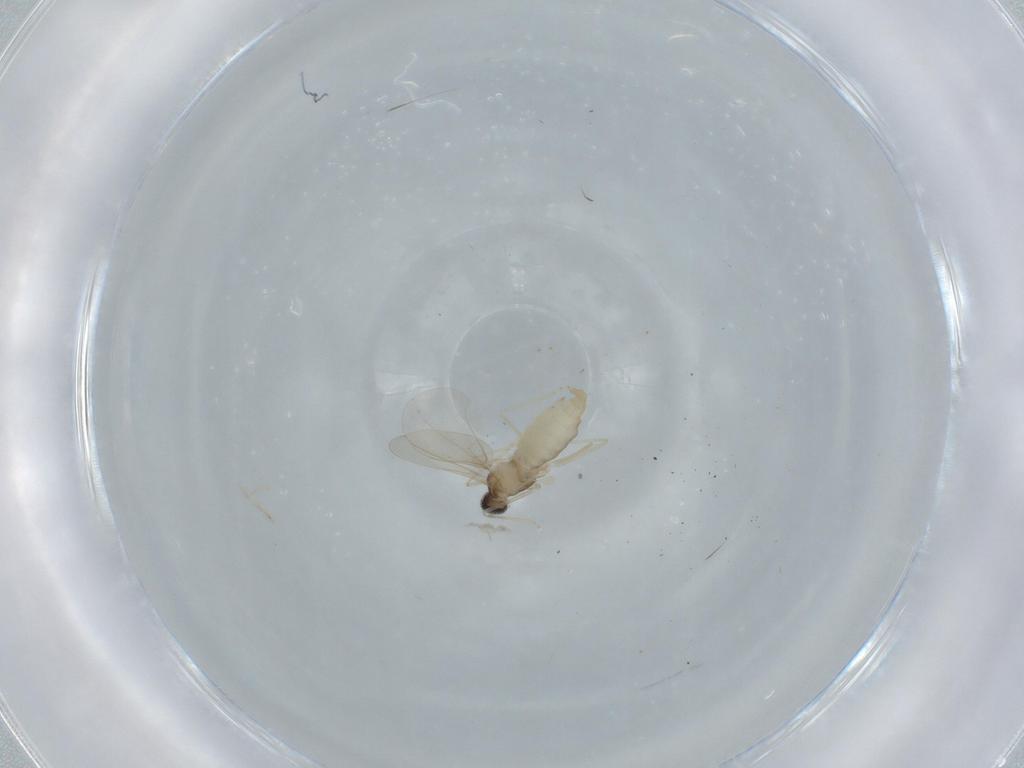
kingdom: Animalia
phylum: Arthropoda
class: Insecta
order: Diptera
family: Cecidomyiidae
